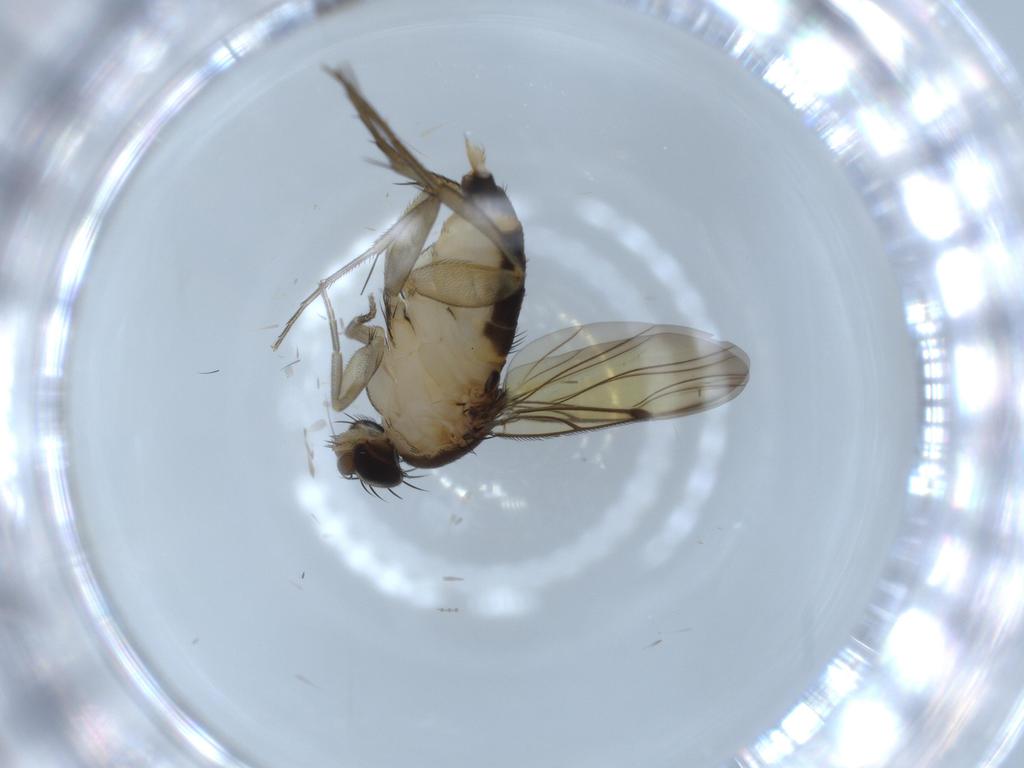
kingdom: Animalia
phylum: Arthropoda
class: Insecta
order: Diptera
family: Phoridae
